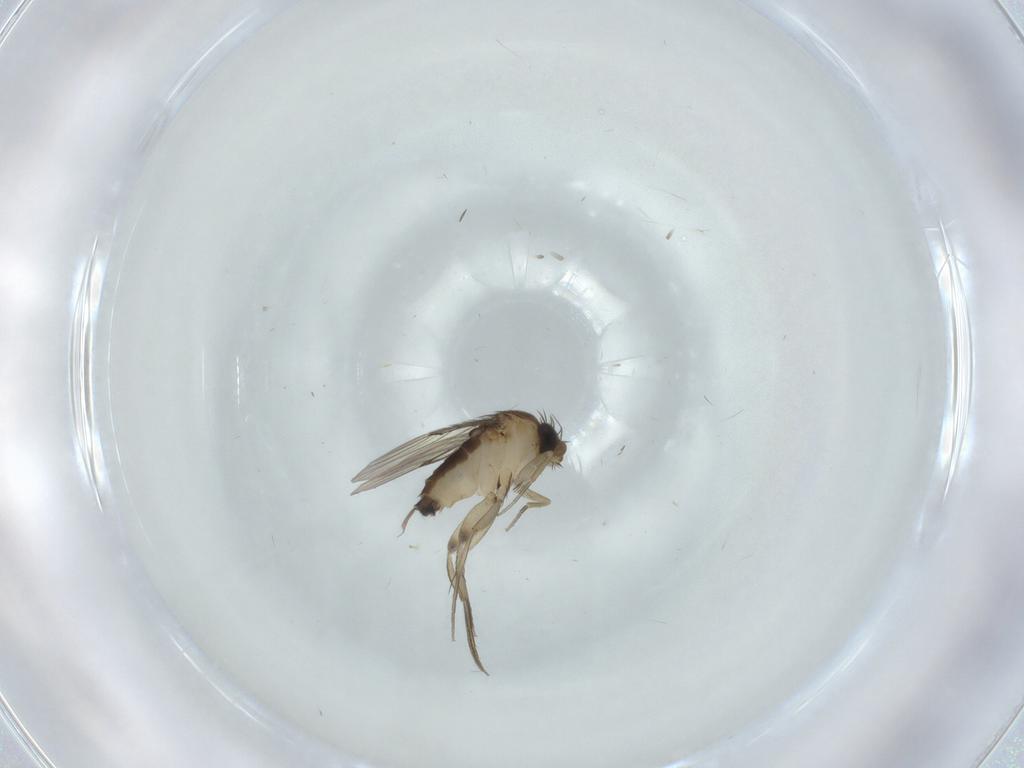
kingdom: Animalia
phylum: Arthropoda
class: Insecta
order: Diptera
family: Phoridae
